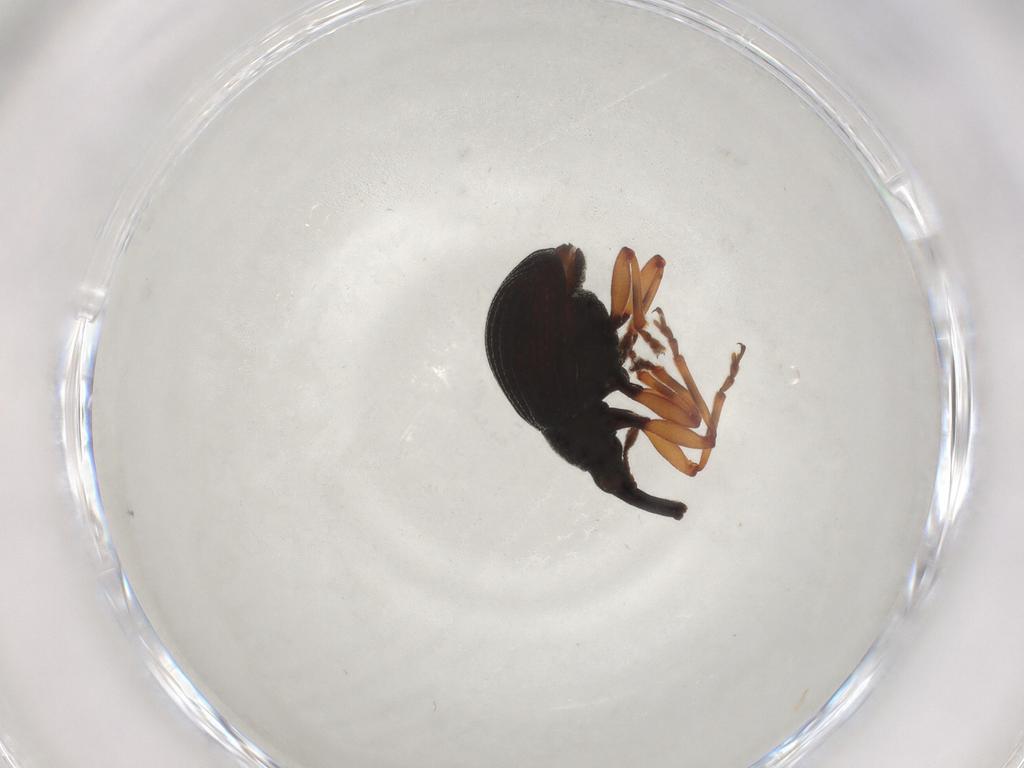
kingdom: Animalia
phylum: Arthropoda
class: Insecta
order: Coleoptera
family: Brentidae
